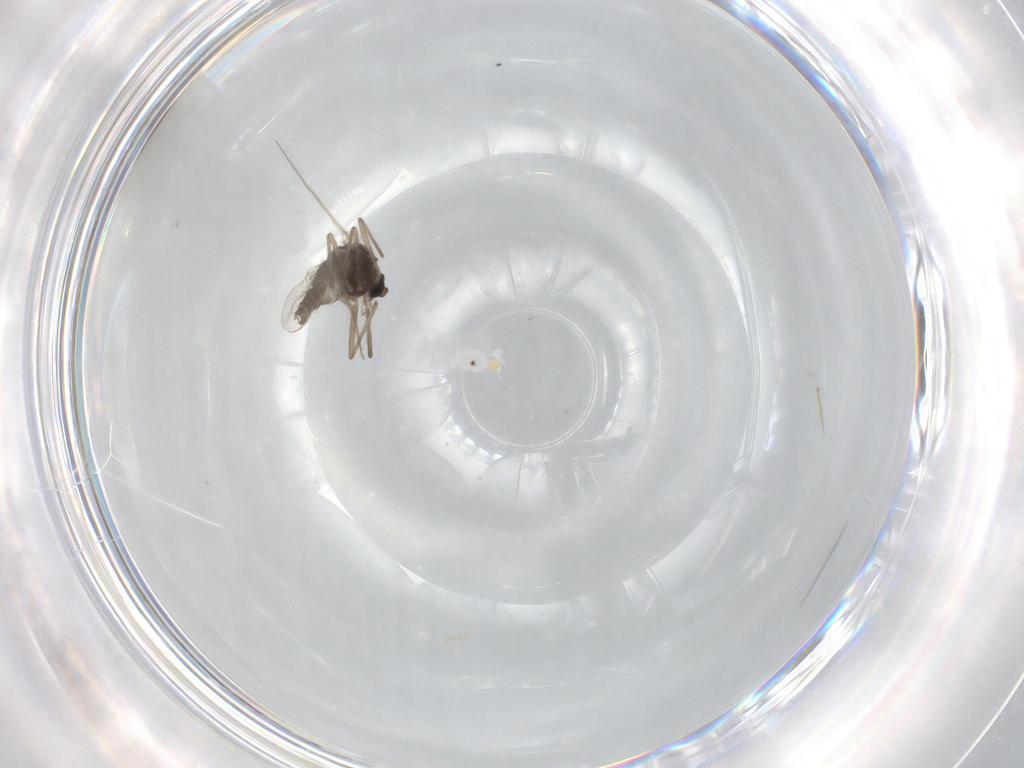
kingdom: Animalia
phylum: Arthropoda
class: Insecta
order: Diptera
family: Chironomidae
